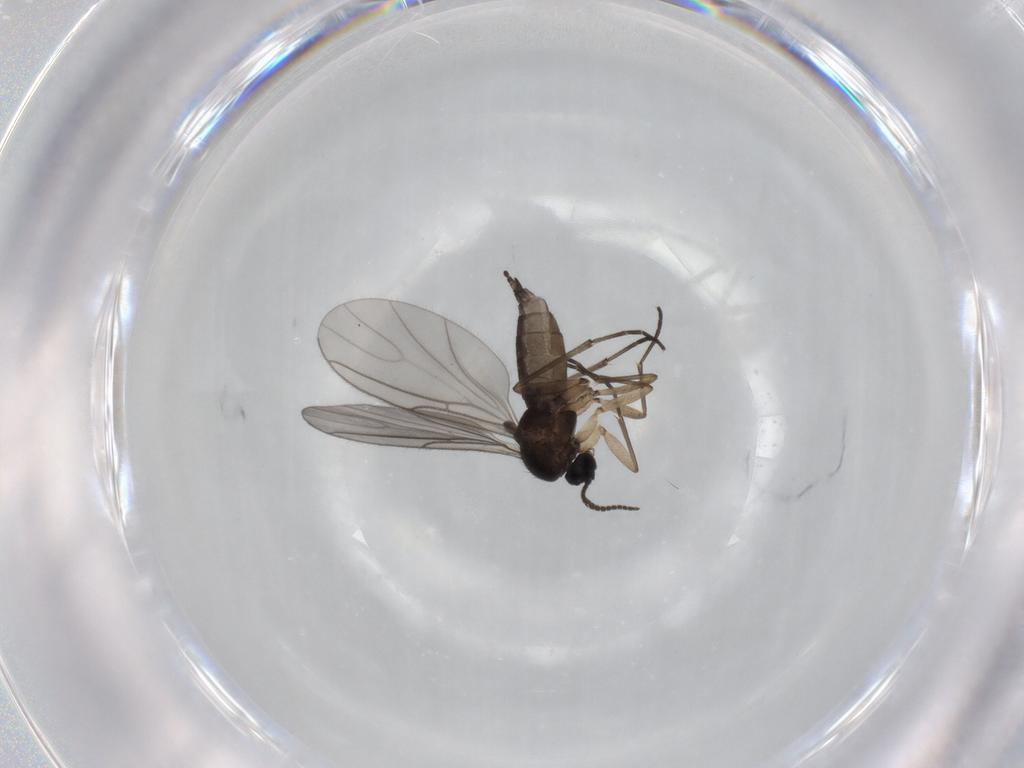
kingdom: Animalia
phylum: Arthropoda
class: Insecta
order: Diptera
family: Sciaridae
